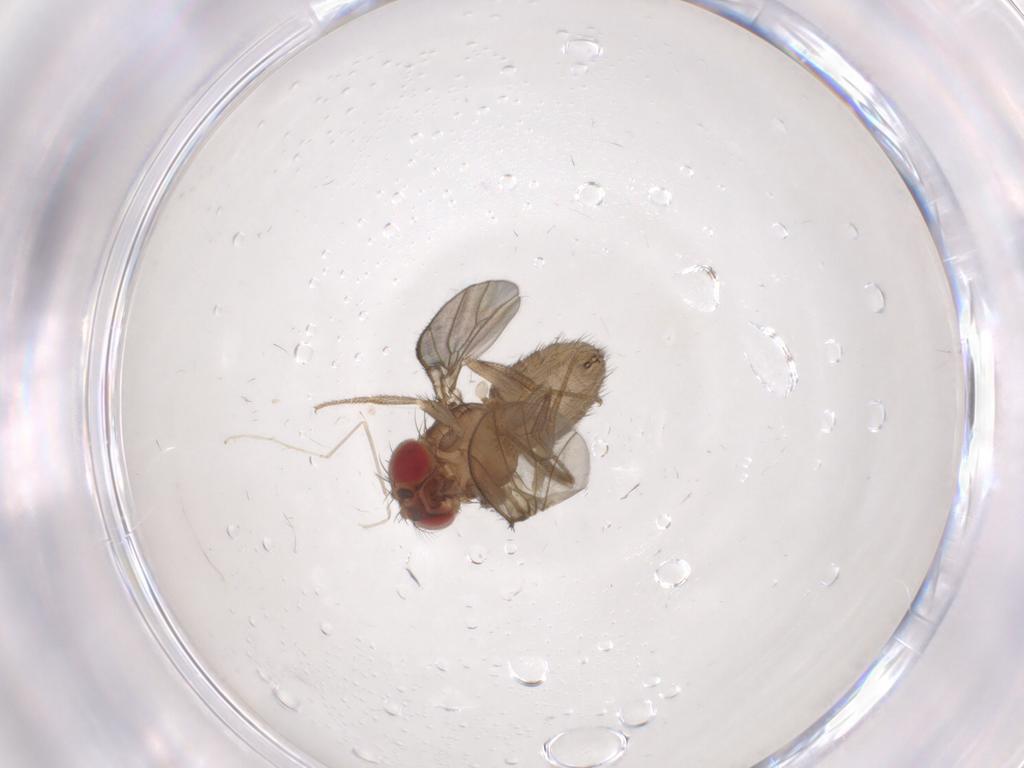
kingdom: Animalia
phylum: Arthropoda
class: Insecta
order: Diptera
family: Drosophilidae
